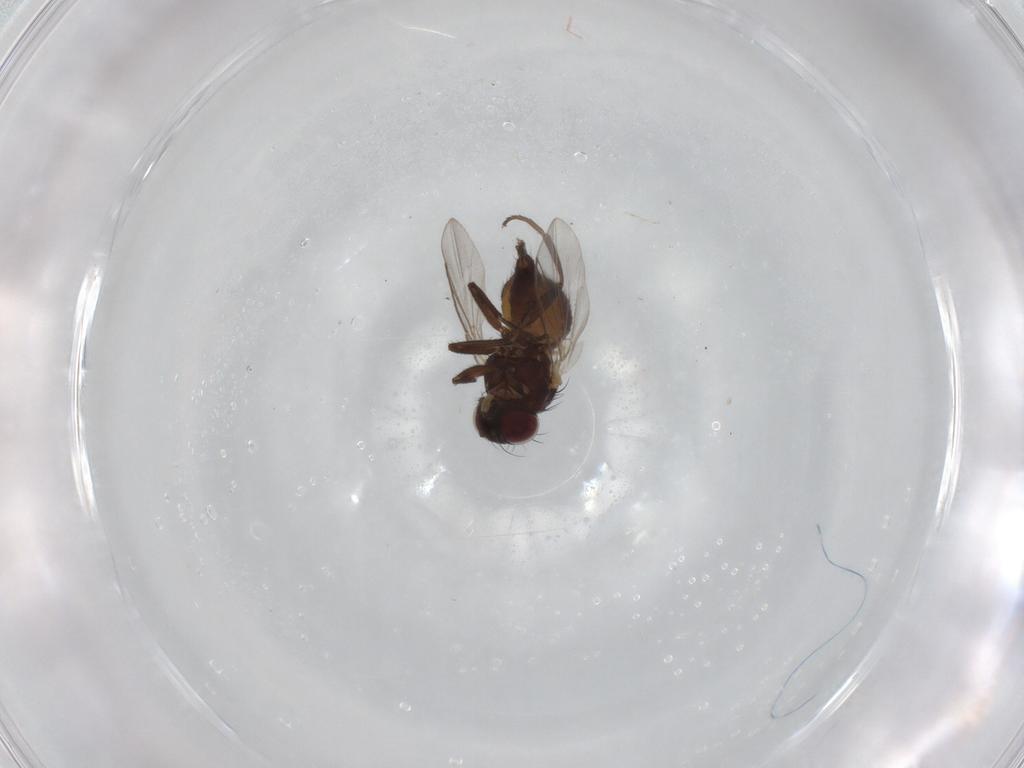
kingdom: Animalia
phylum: Arthropoda
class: Insecta
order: Diptera
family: Agromyzidae
